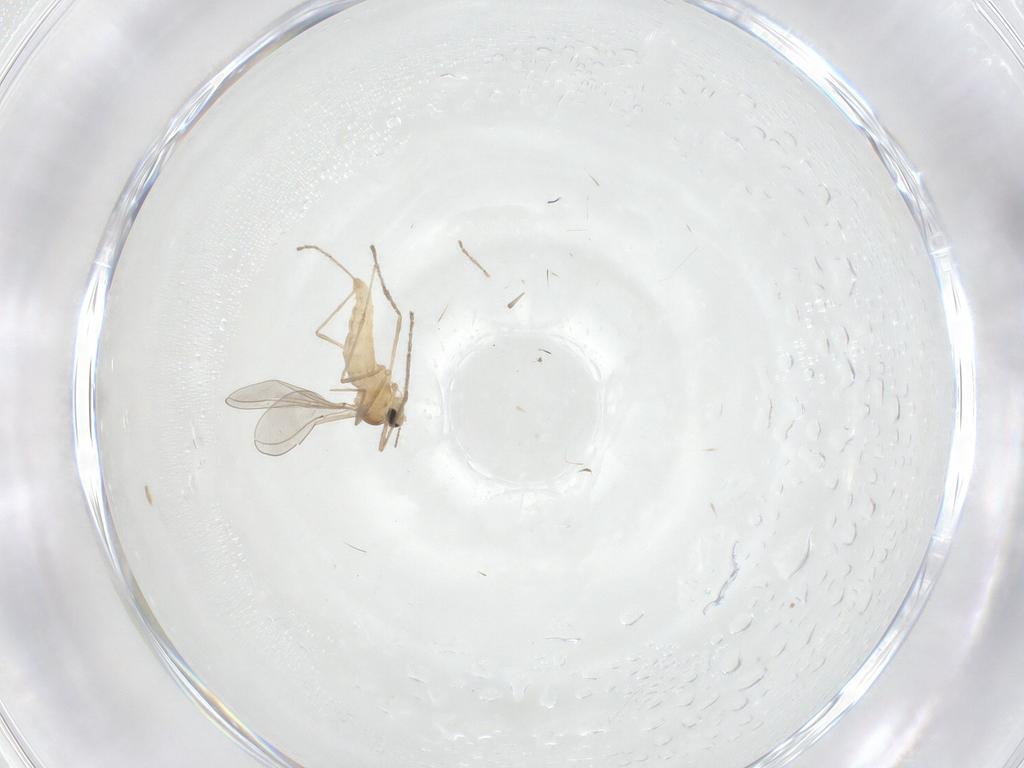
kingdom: Animalia
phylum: Arthropoda
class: Insecta
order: Diptera
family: Cecidomyiidae
